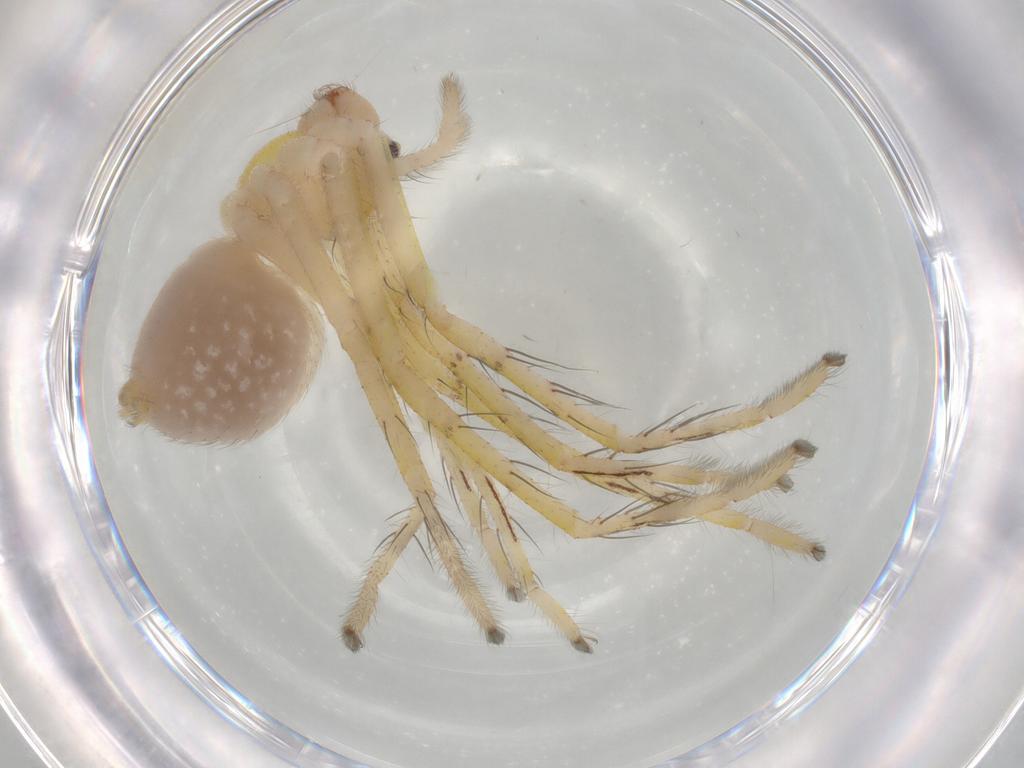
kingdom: Animalia
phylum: Arthropoda
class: Arachnida
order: Araneae
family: Sparassidae
